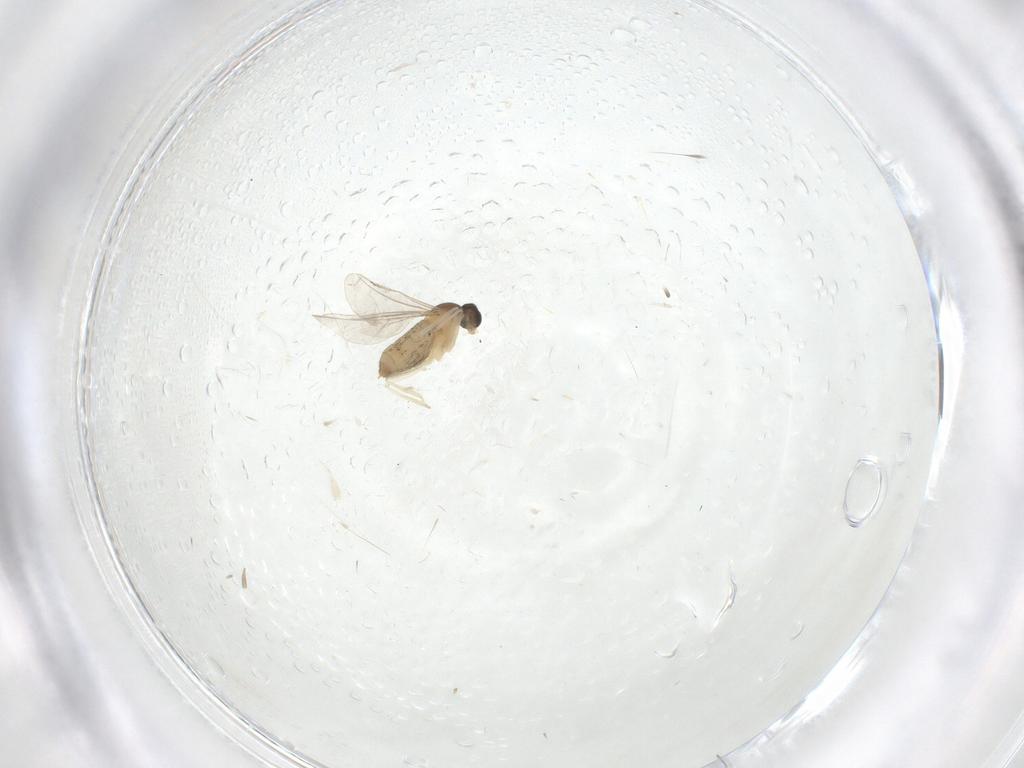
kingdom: Animalia
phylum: Arthropoda
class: Insecta
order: Diptera
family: Cecidomyiidae
